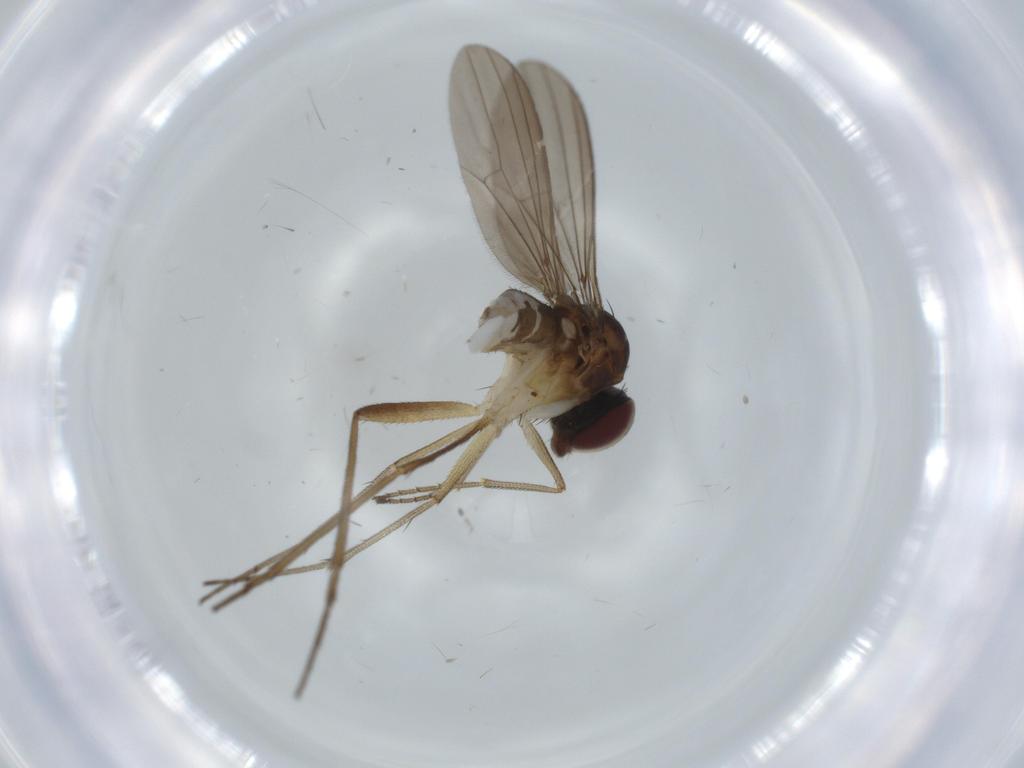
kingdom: Animalia
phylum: Arthropoda
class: Insecta
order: Diptera
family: Dolichopodidae
